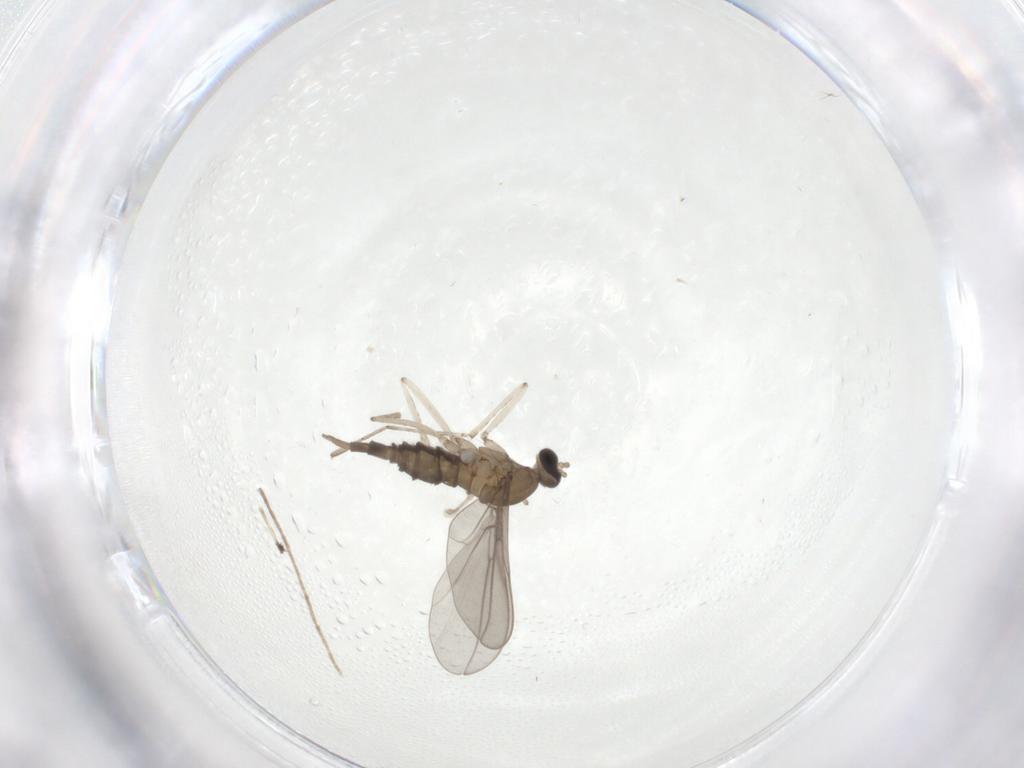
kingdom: Animalia
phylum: Arthropoda
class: Insecta
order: Diptera
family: Cecidomyiidae
